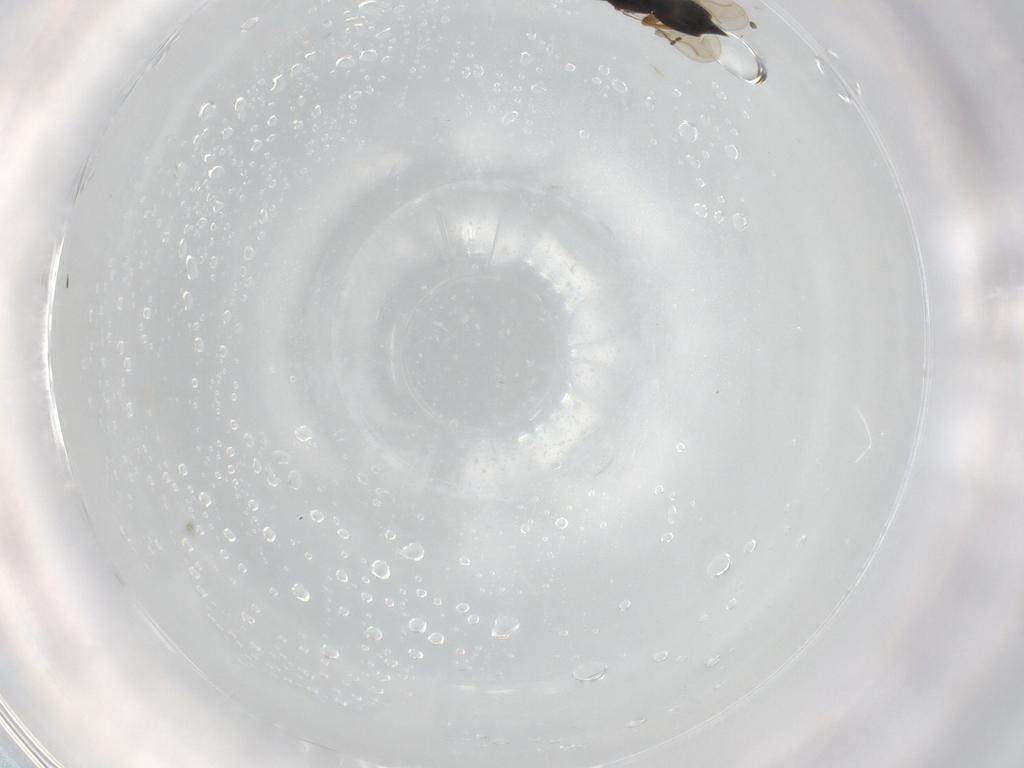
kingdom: Animalia
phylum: Arthropoda
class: Insecta
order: Hymenoptera
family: Ceraphronidae
